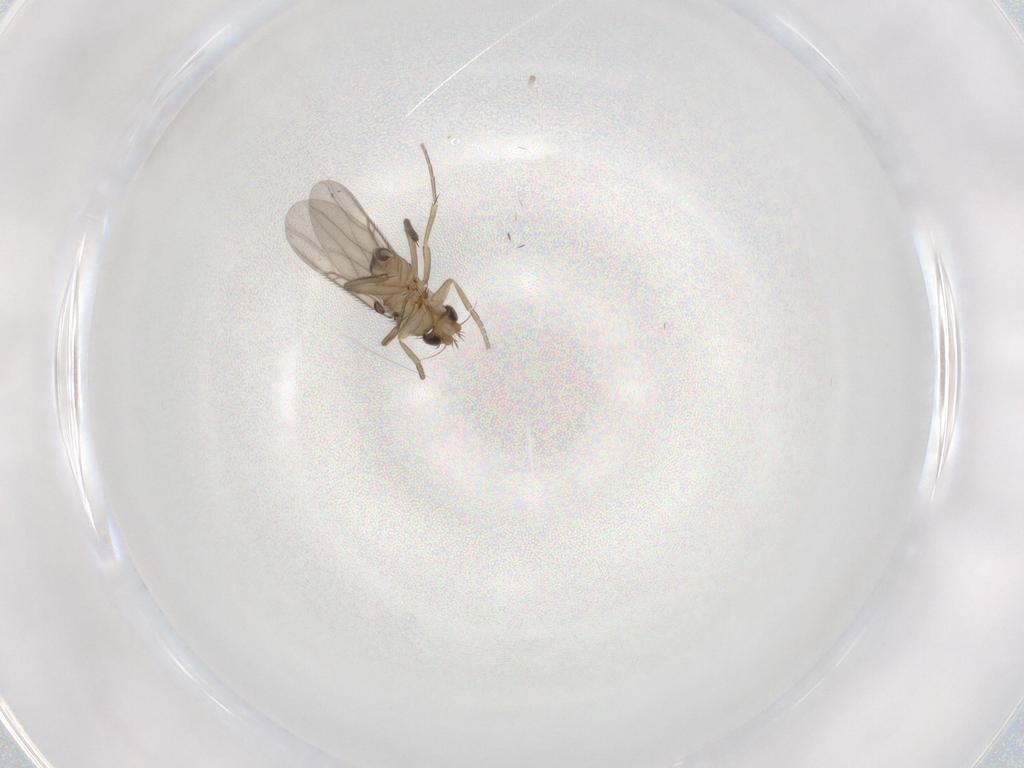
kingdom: Animalia
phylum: Arthropoda
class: Insecta
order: Diptera
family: Phoridae
